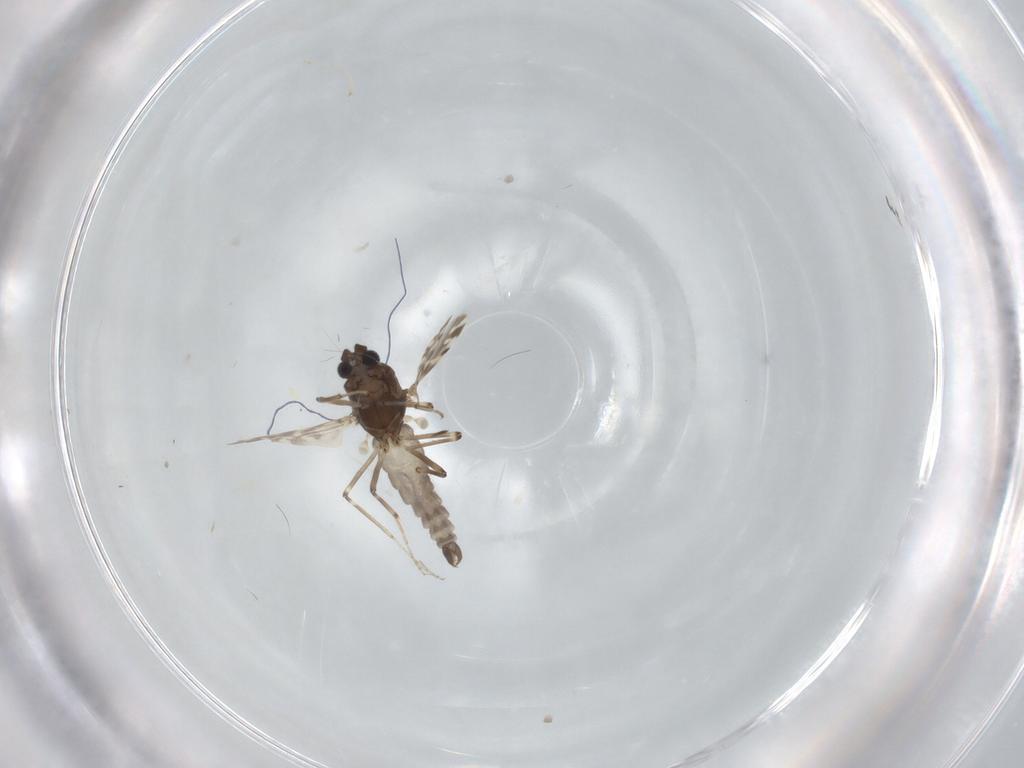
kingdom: Animalia
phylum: Arthropoda
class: Insecta
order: Diptera
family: Ceratopogonidae
